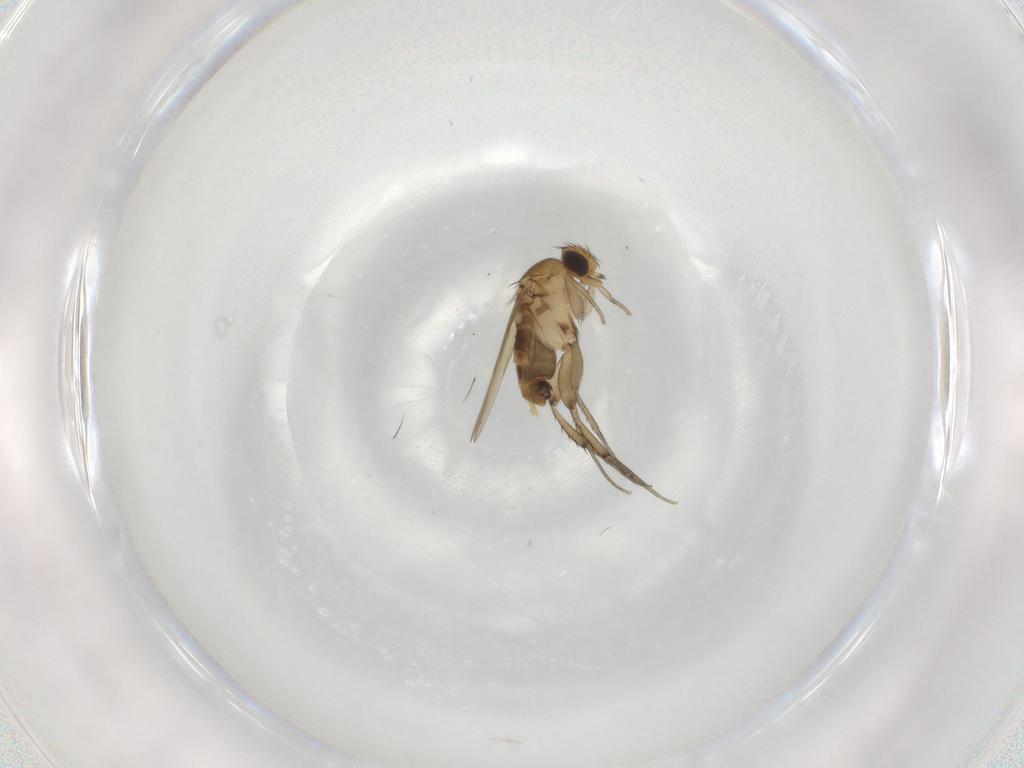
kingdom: Animalia
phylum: Arthropoda
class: Insecta
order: Diptera
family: Phoridae
